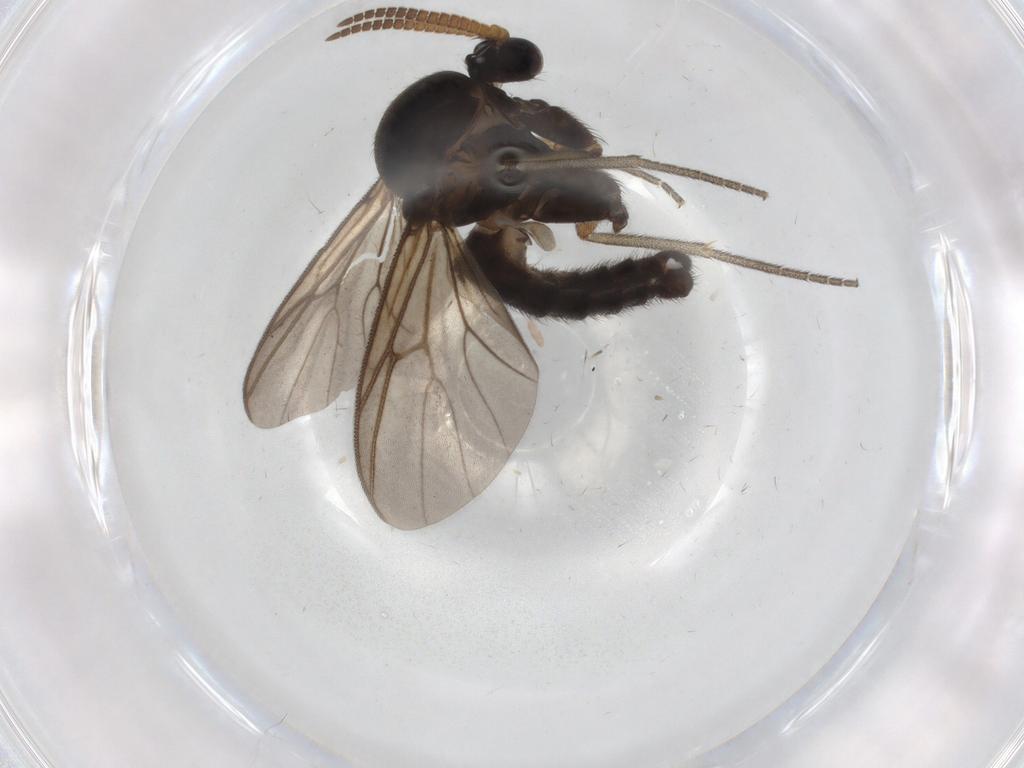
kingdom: Animalia
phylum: Arthropoda
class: Insecta
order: Diptera
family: Mycetophilidae
